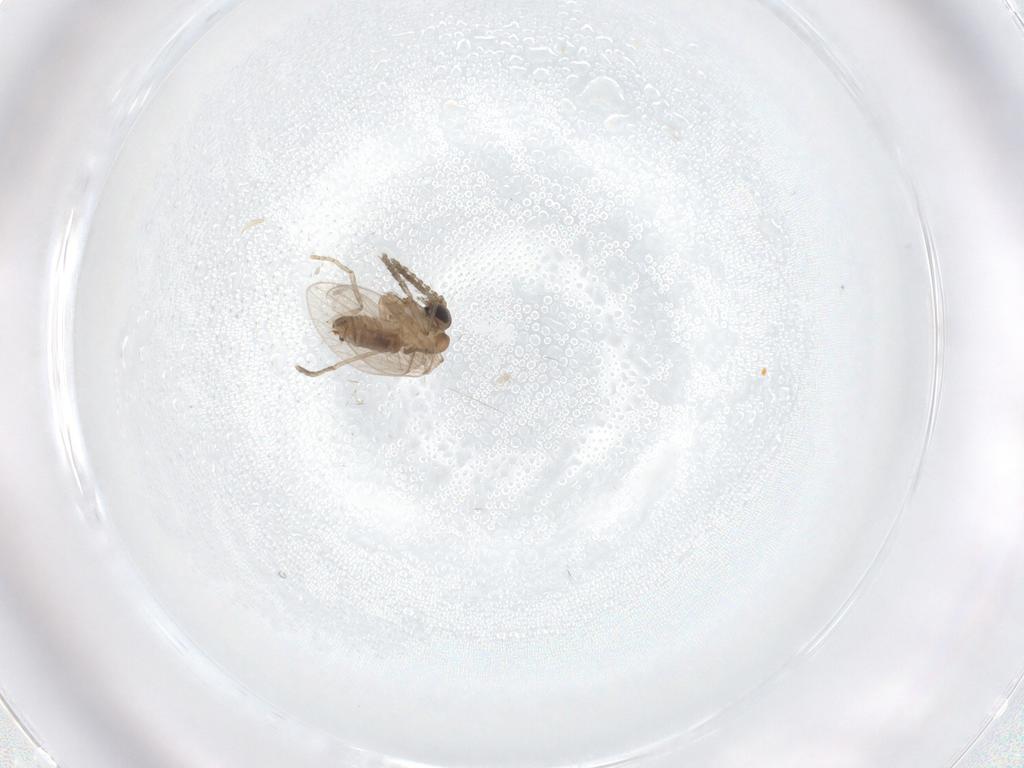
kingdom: Animalia
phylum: Arthropoda
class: Insecta
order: Diptera
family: Psychodidae
